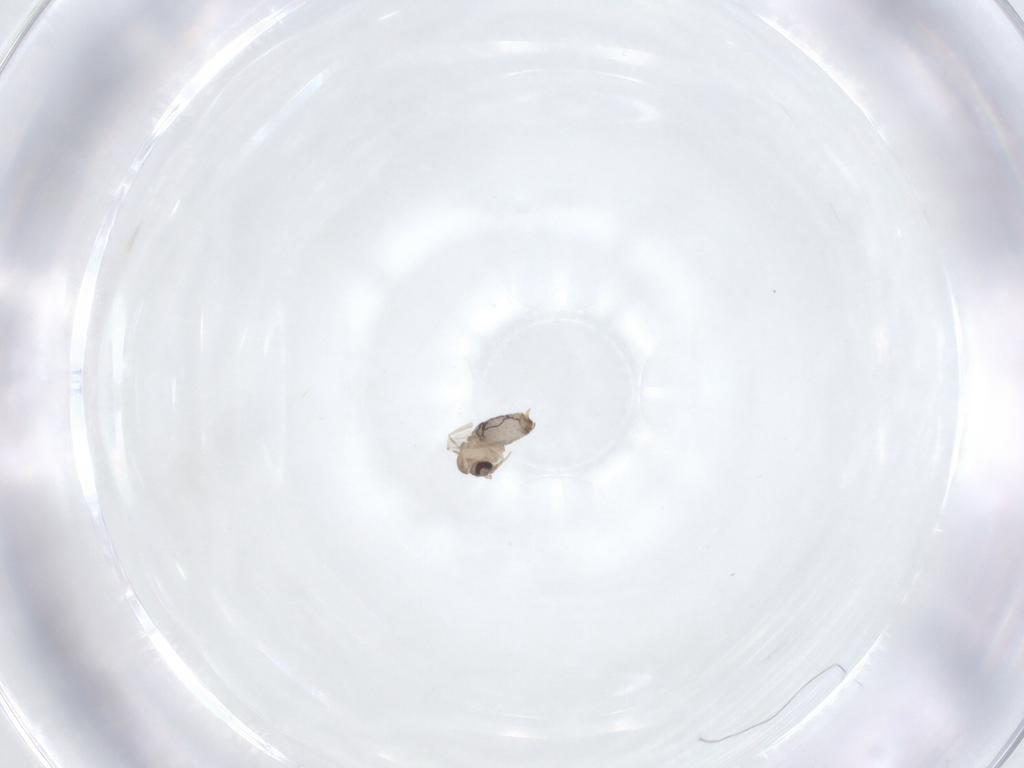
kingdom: Animalia
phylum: Arthropoda
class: Insecta
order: Diptera
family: Psychodidae
